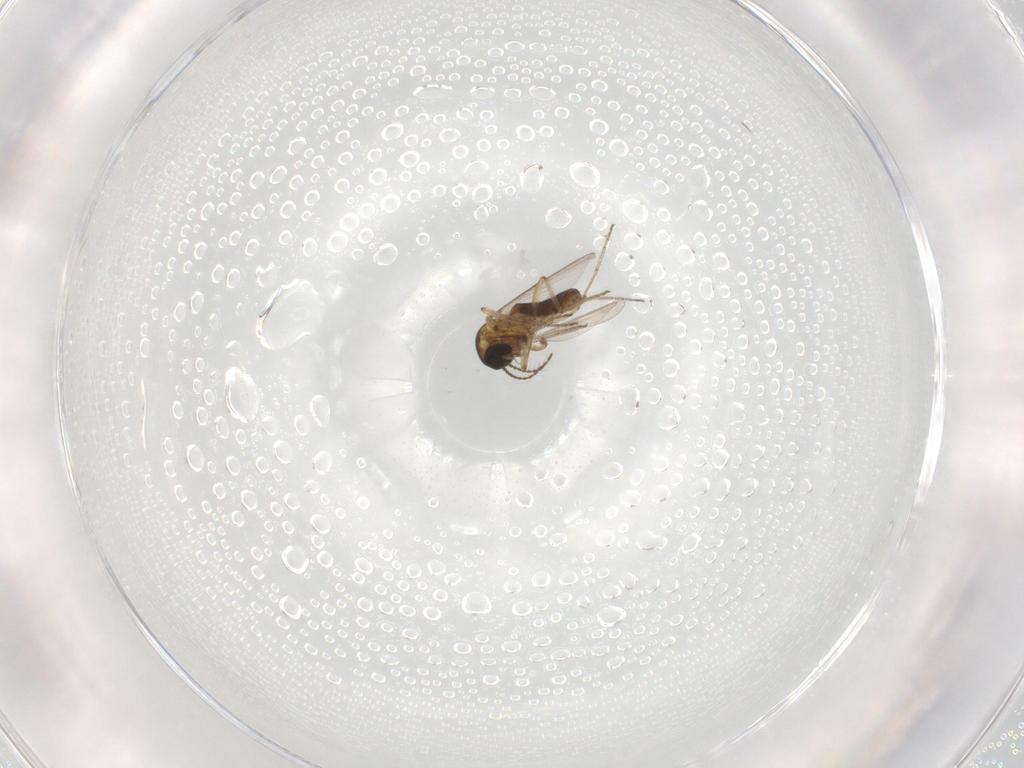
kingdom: Animalia
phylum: Arthropoda
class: Insecta
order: Diptera
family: Ceratopogonidae
